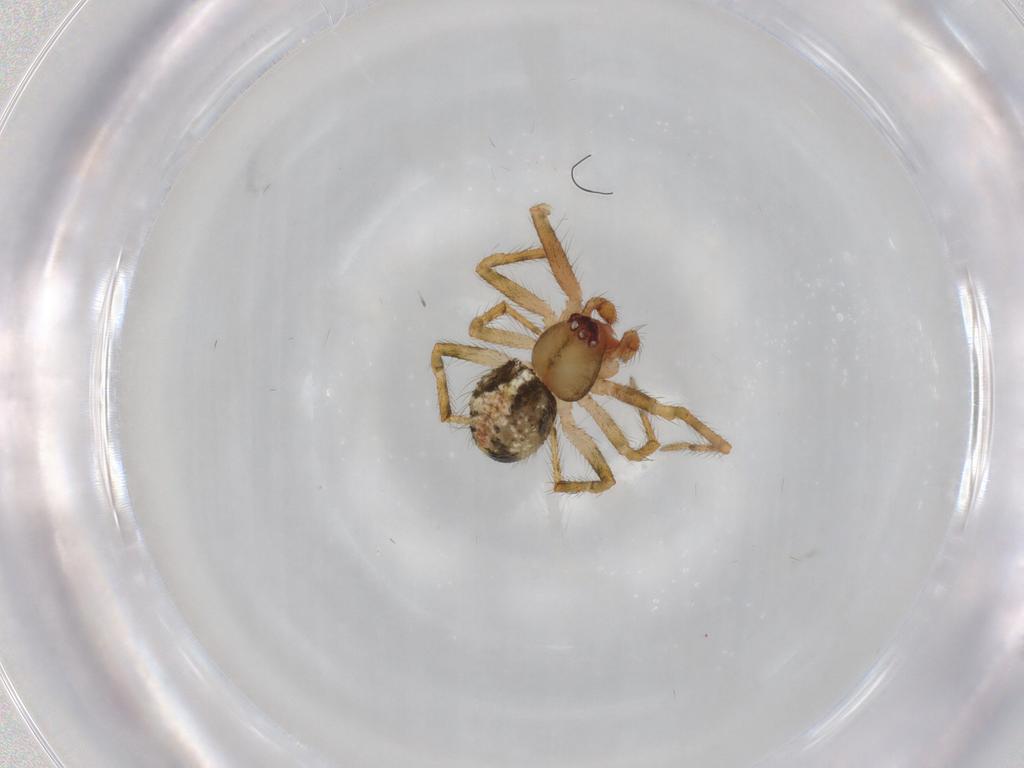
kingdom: Animalia
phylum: Arthropoda
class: Arachnida
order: Araneae
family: Theridiidae
